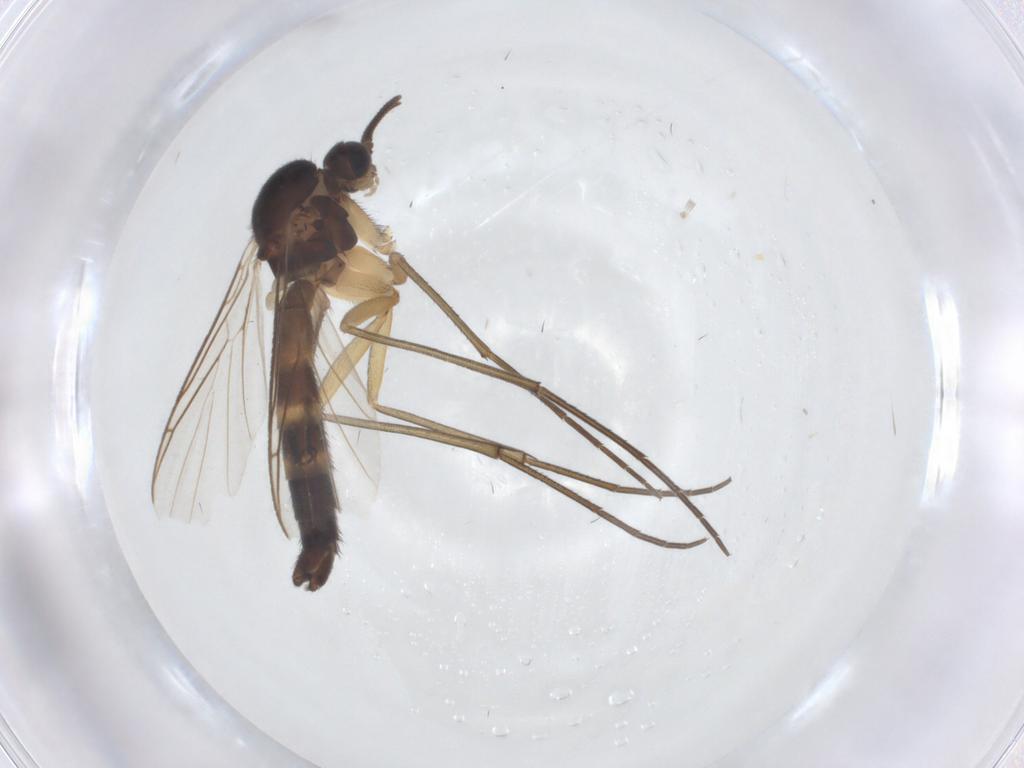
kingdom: Animalia
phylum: Arthropoda
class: Insecta
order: Diptera
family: Keroplatidae
